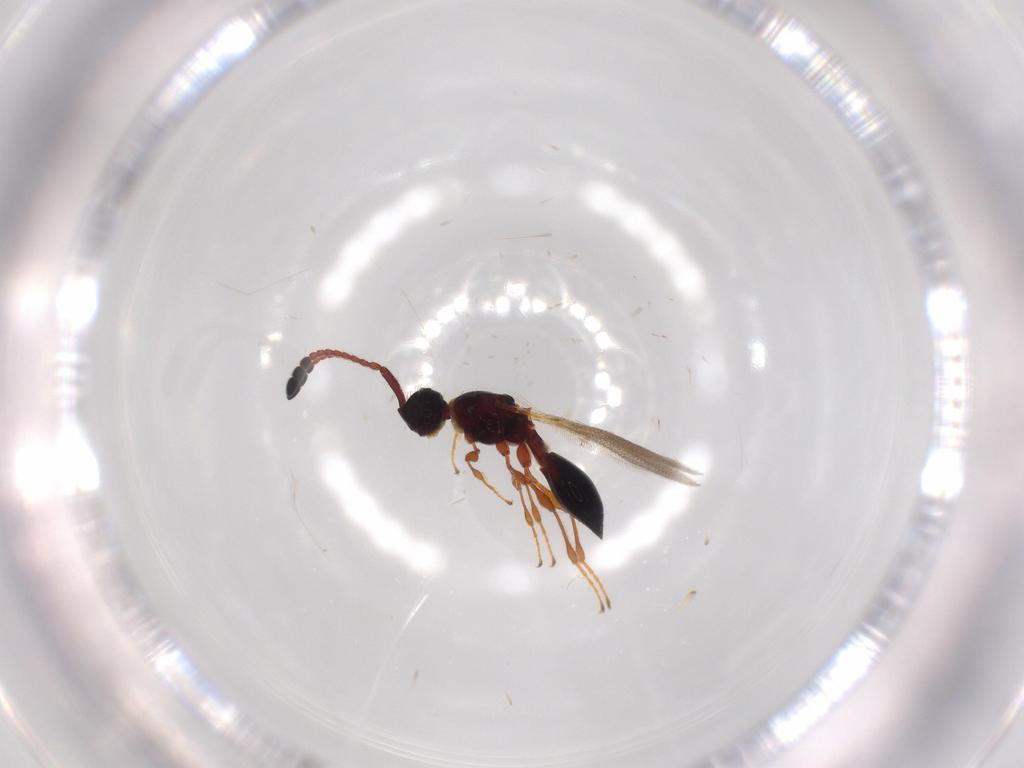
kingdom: Animalia
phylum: Arthropoda
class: Insecta
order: Hymenoptera
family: Diapriidae
